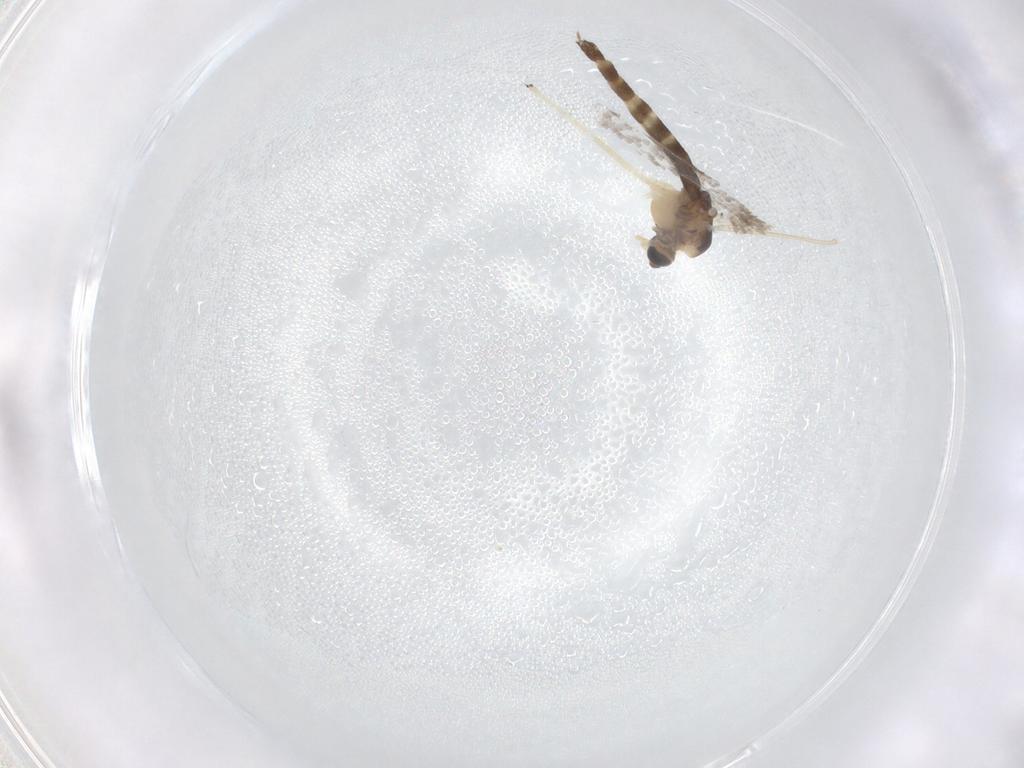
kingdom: Animalia
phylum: Arthropoda
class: Insecta
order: Diptera
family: Chironomidae
